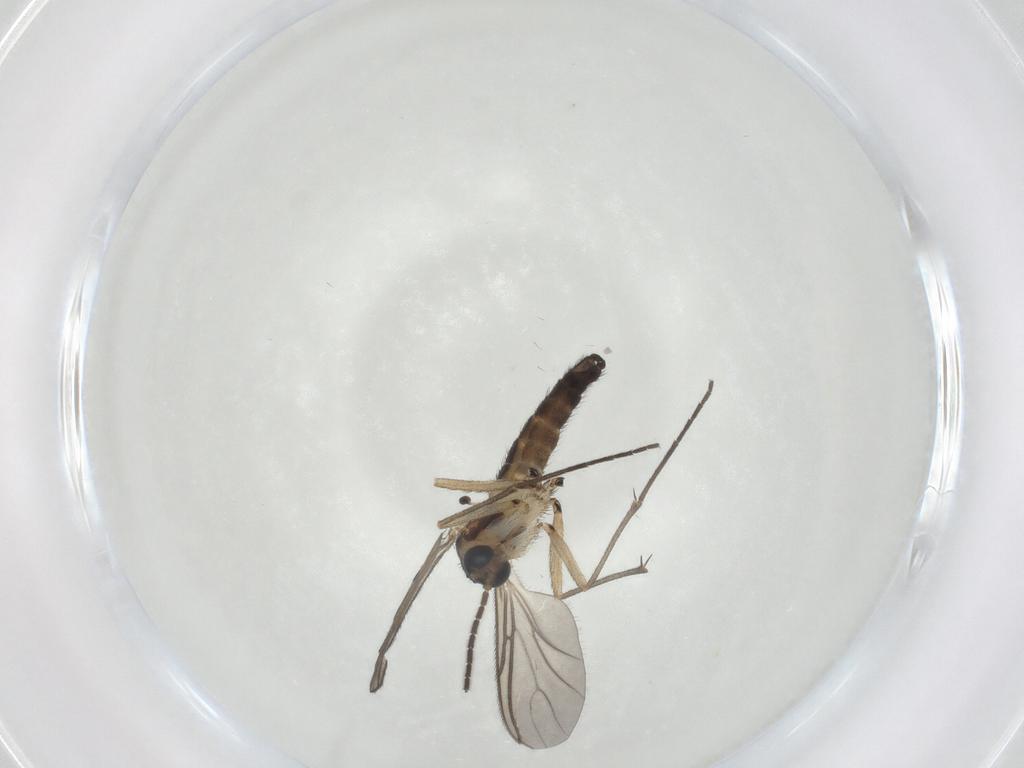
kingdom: Animalia
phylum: Arthropoda
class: Insecta
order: Diptera
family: Sciaridae
